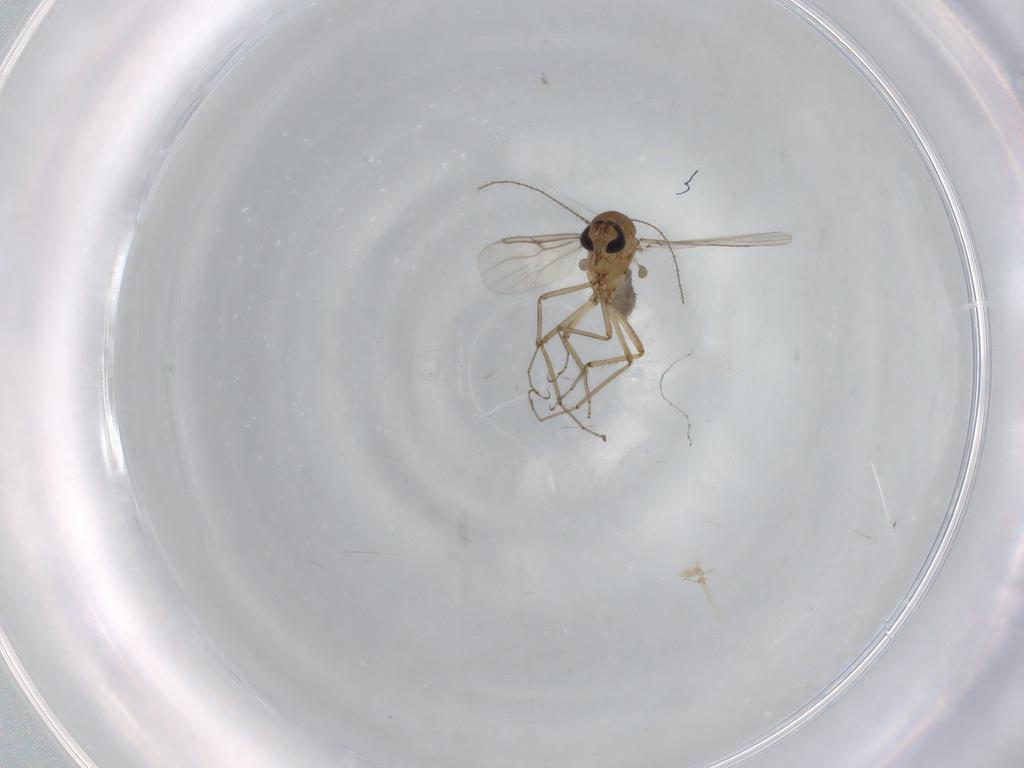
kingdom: Animalia
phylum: Arthropoda
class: Insecta
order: Diptera
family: Ceratopogonidae
